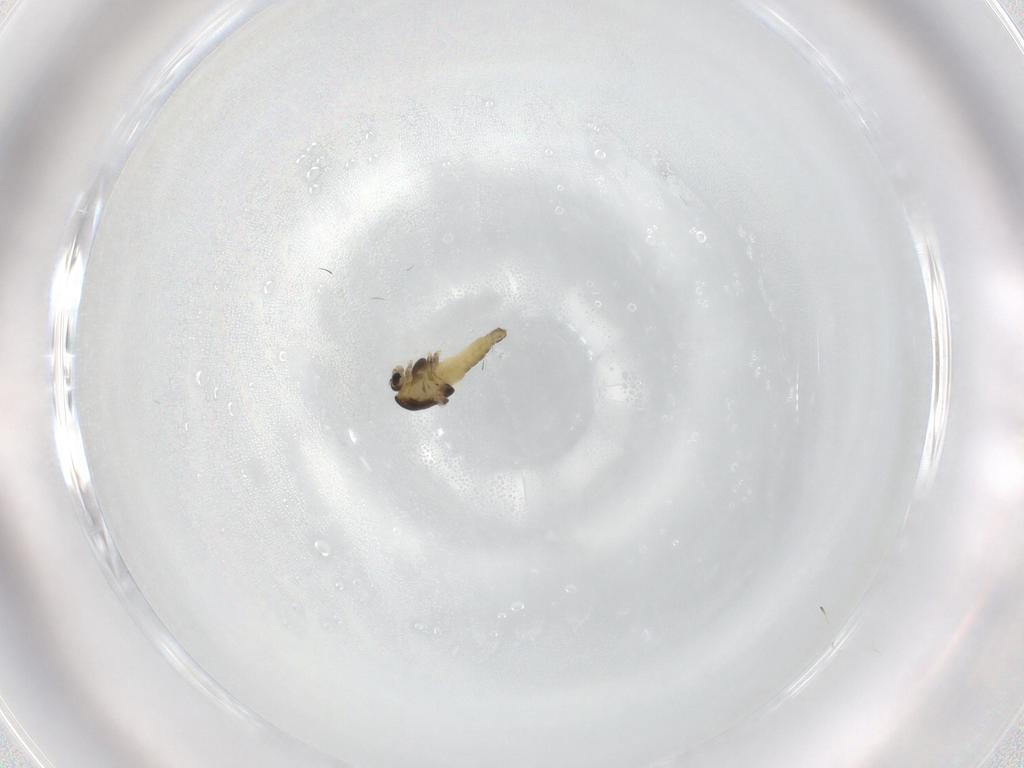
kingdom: Animalia
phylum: Arthropoda
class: Insecta
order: Diptera
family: Chironomidae
